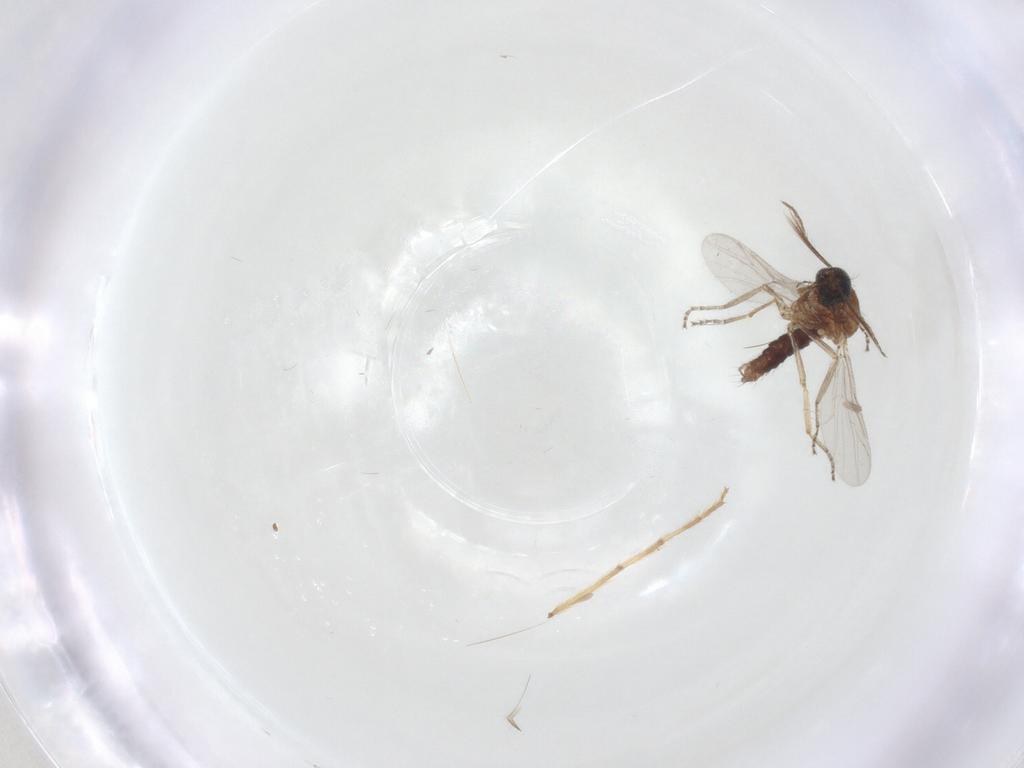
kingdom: Animalia
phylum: Arthropoda
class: Insecta
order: Diptera
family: Ceratopogonidae
